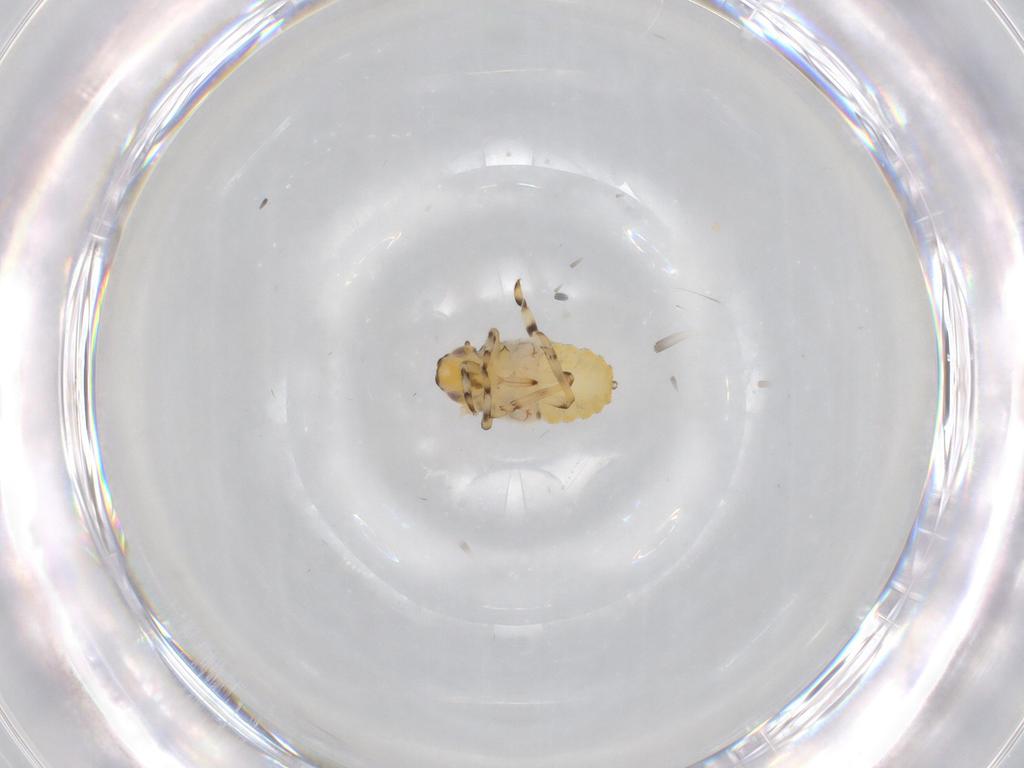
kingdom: Animalia
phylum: Arthropoda
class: Insecta
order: Hemiptera
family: Issidae
